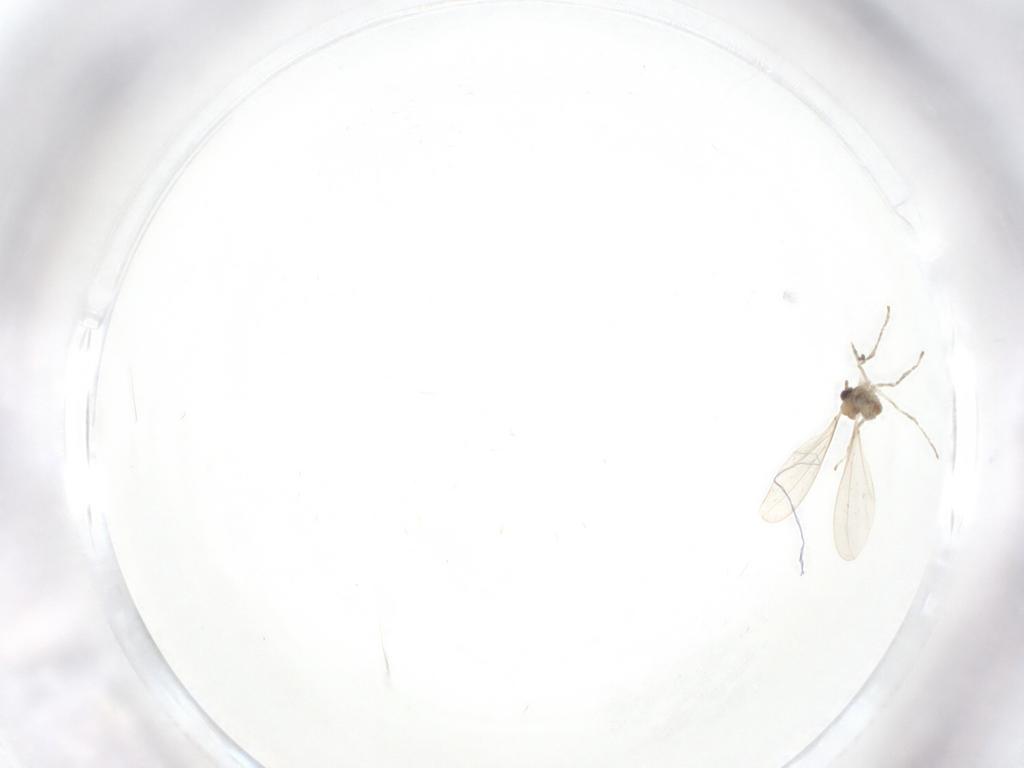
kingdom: Animalia
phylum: Arthropoda
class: Insecta
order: Diptera
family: Cecidomyiidae
